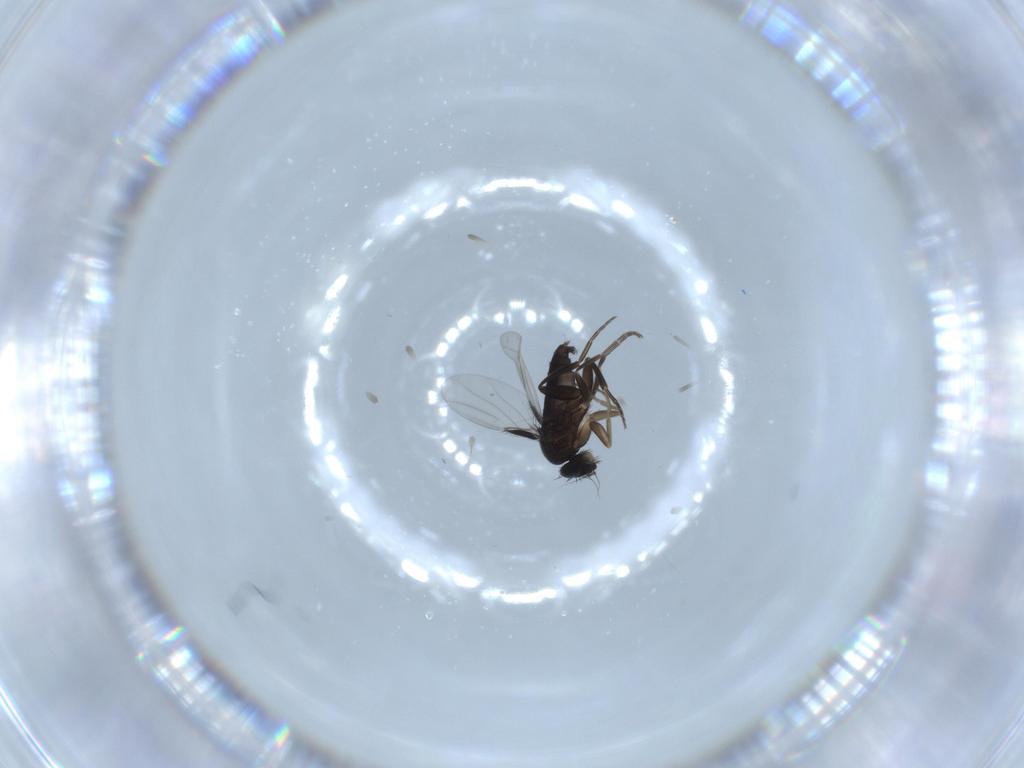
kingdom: Animalia
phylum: Arthropoda
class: Insecta
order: Diptera
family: Phoridae
